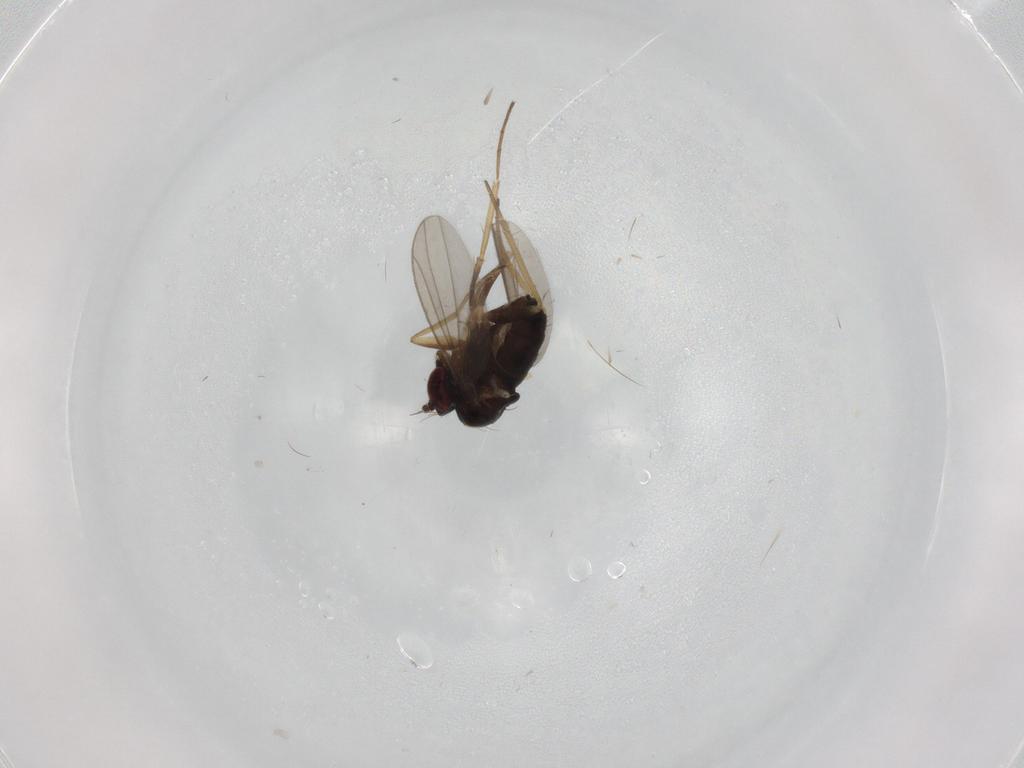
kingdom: Animalia
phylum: Arthropoda
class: Insecta
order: Diptera
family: Dolichopodidae
